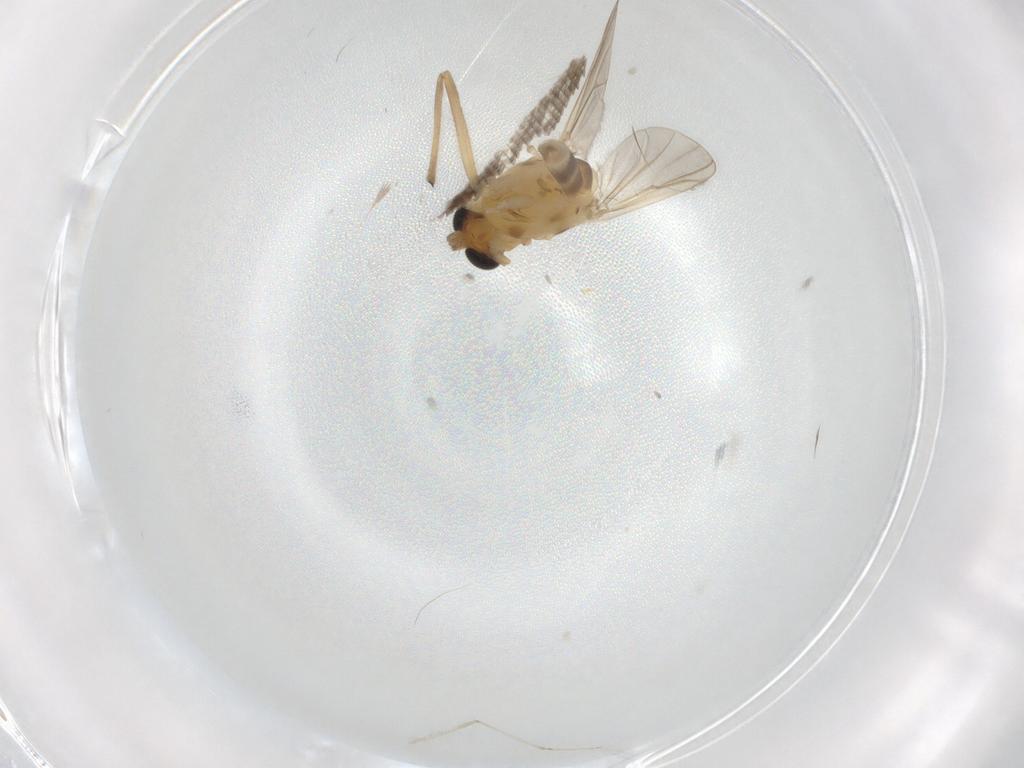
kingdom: Animalia
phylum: Arthropoda
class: Insecta
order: Diptera
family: Chironomidae
